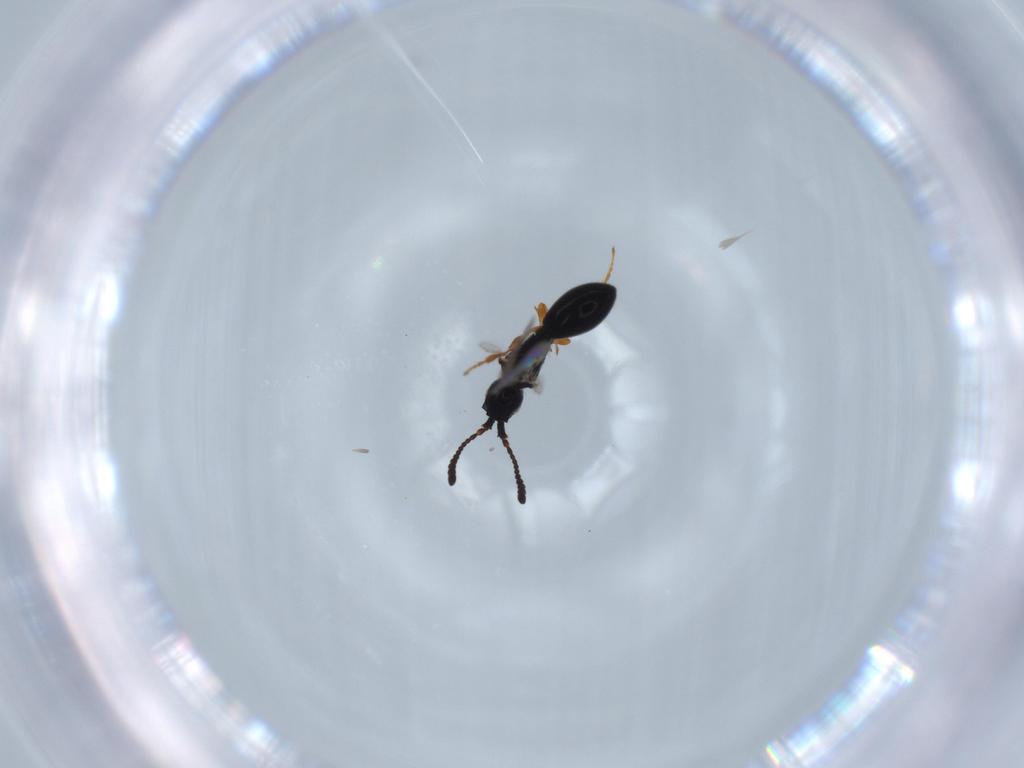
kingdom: Animalia
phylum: Arthropoda
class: Insecta
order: Hymenoptera
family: Diapriidae
